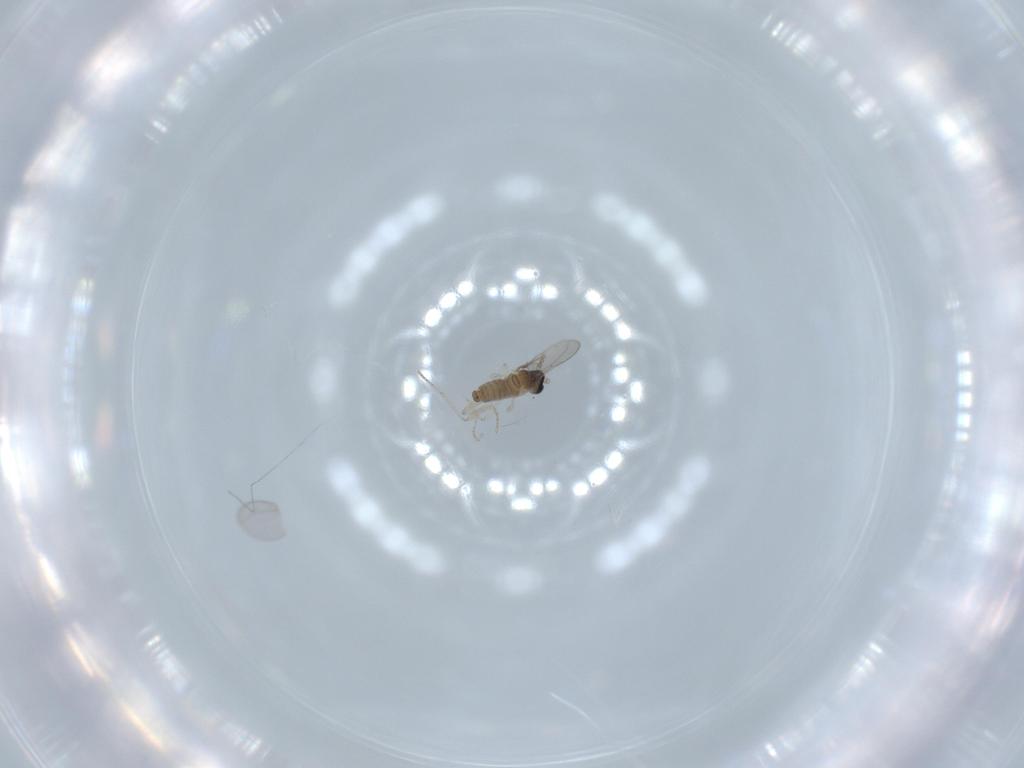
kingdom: Animalia
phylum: Arthropoda
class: Insecta
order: Diptera
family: Cecidomyiidae
